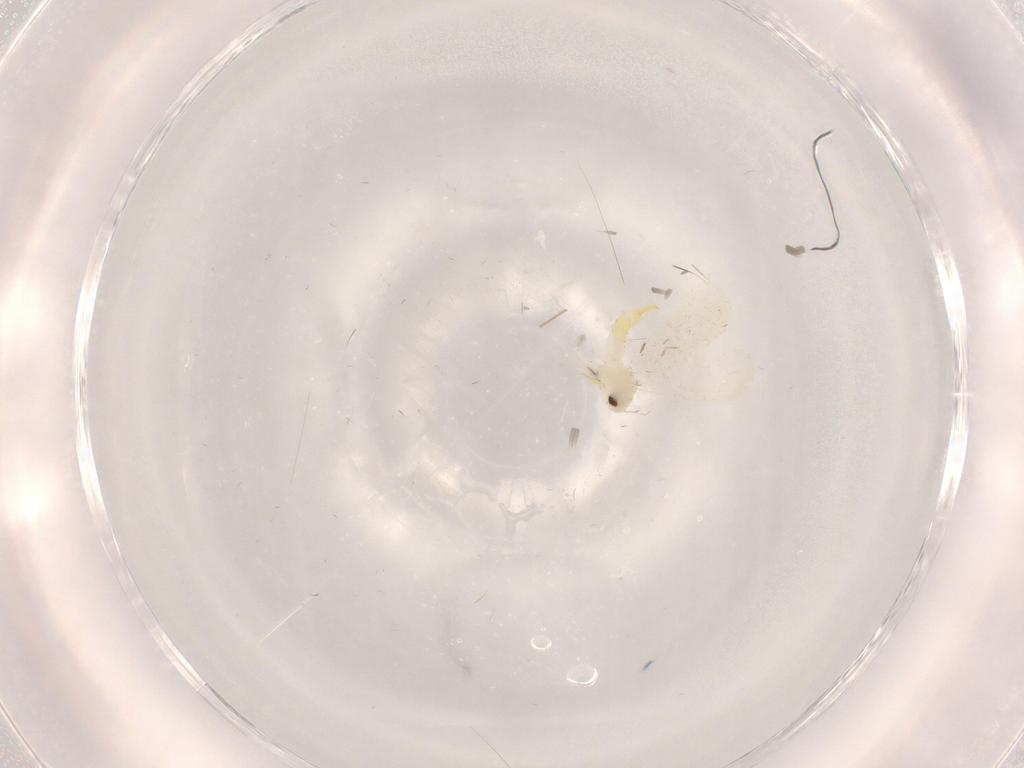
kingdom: Animalia
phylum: Arthropoda
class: Insecta
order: Hemiptera
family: Aleyrodidae
